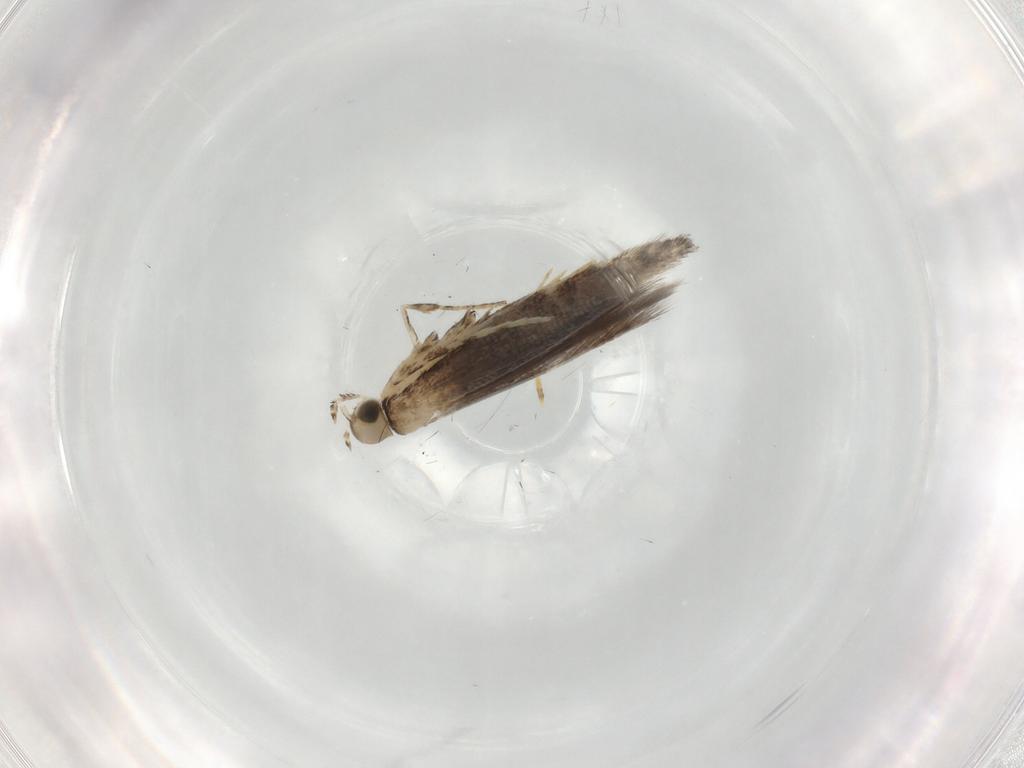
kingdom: Animalia
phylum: Arthropoda
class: Insecta
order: Lepidoptera
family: Gracillariidae
